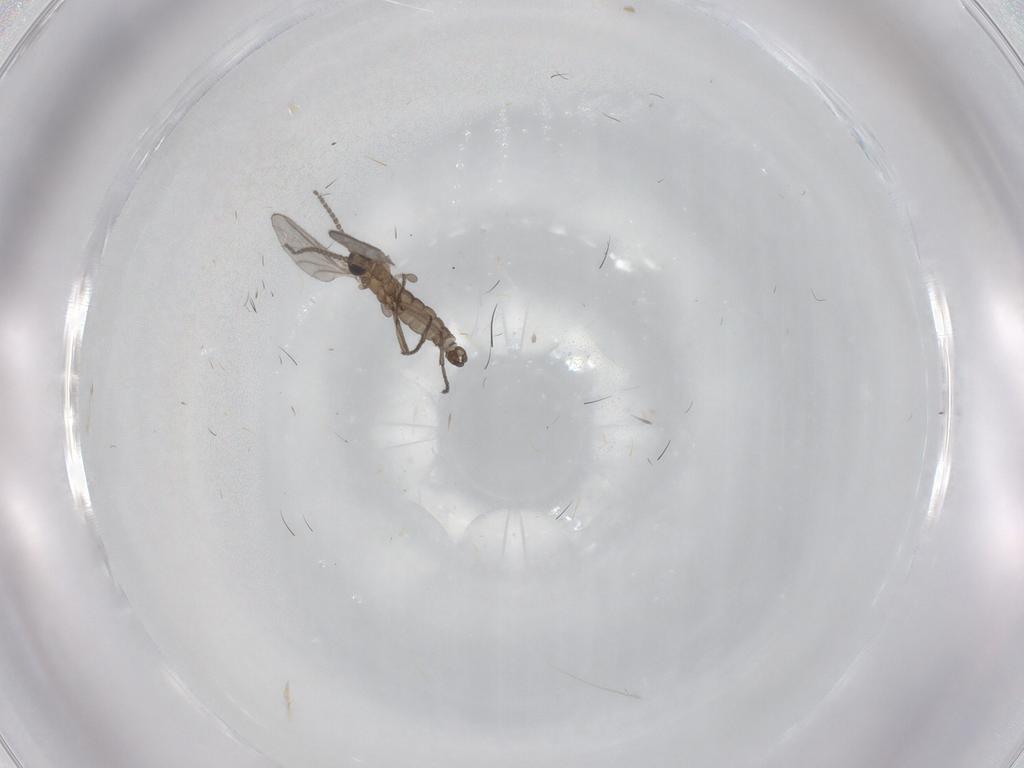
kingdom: Animalia
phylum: Arthropoda
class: Insecta
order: Diptera
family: Sciaridae
